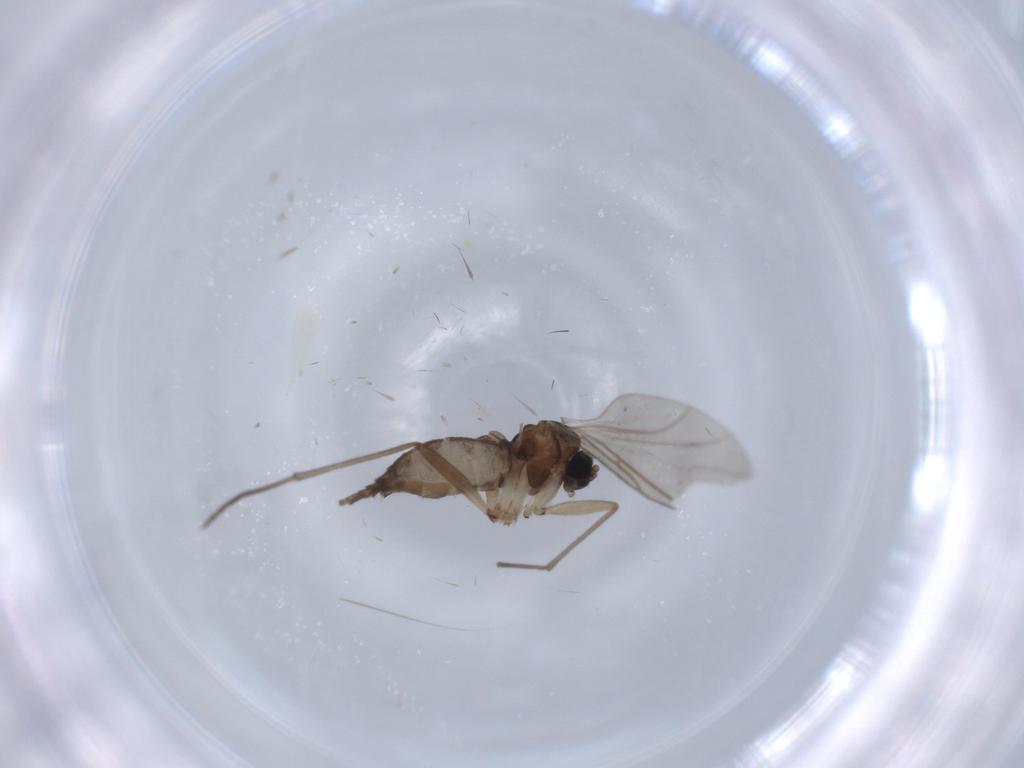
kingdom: Animalia
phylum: Arthropoda
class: Insecta
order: Diptera
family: Sciaridae
